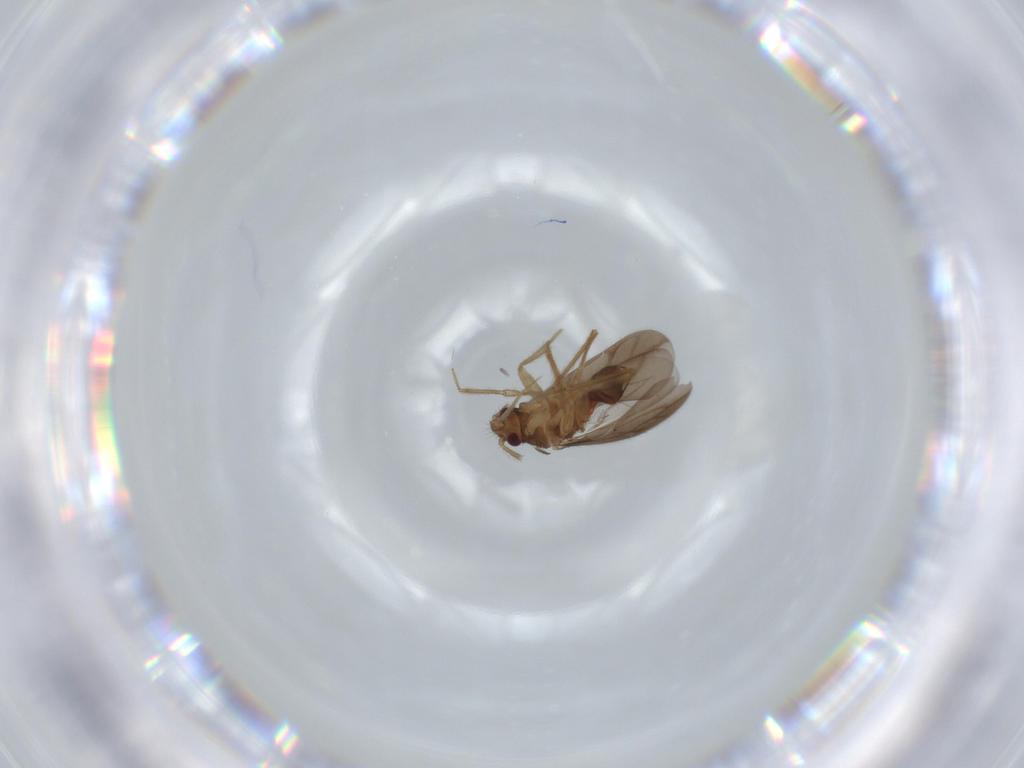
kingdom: Animalia
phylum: Arthropoda
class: Insecta
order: Hemiptera
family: Ceratocombidae
